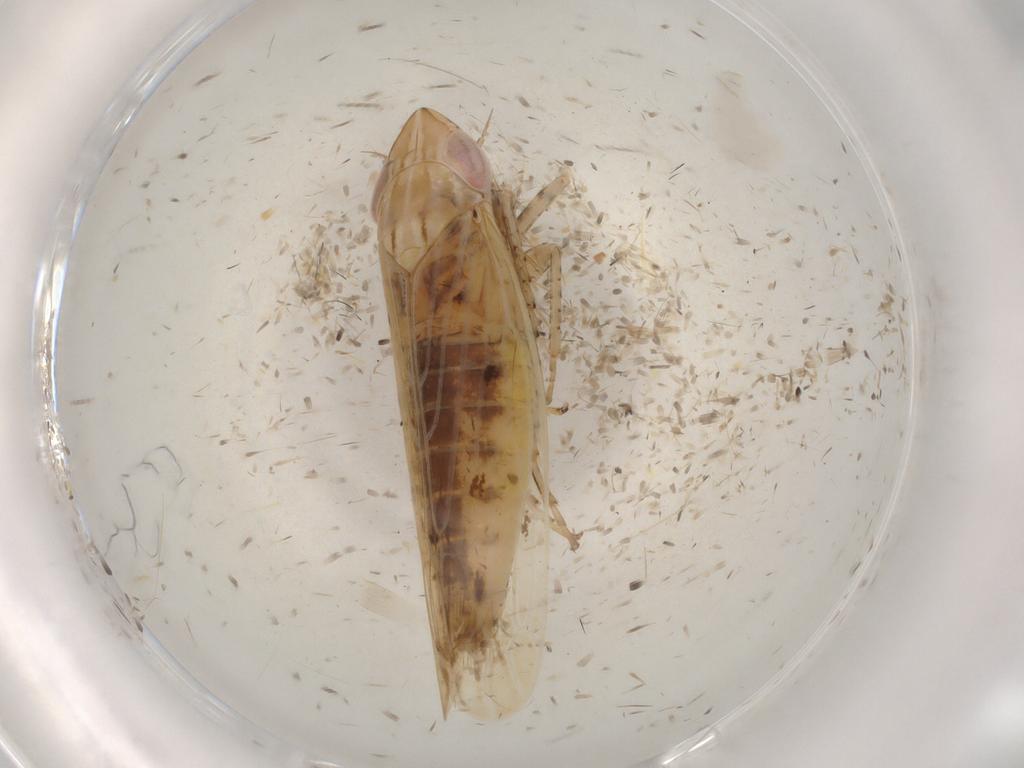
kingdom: Animalia
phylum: Arthropoda
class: Insecta
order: Hemiptera
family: Cicadellidae
